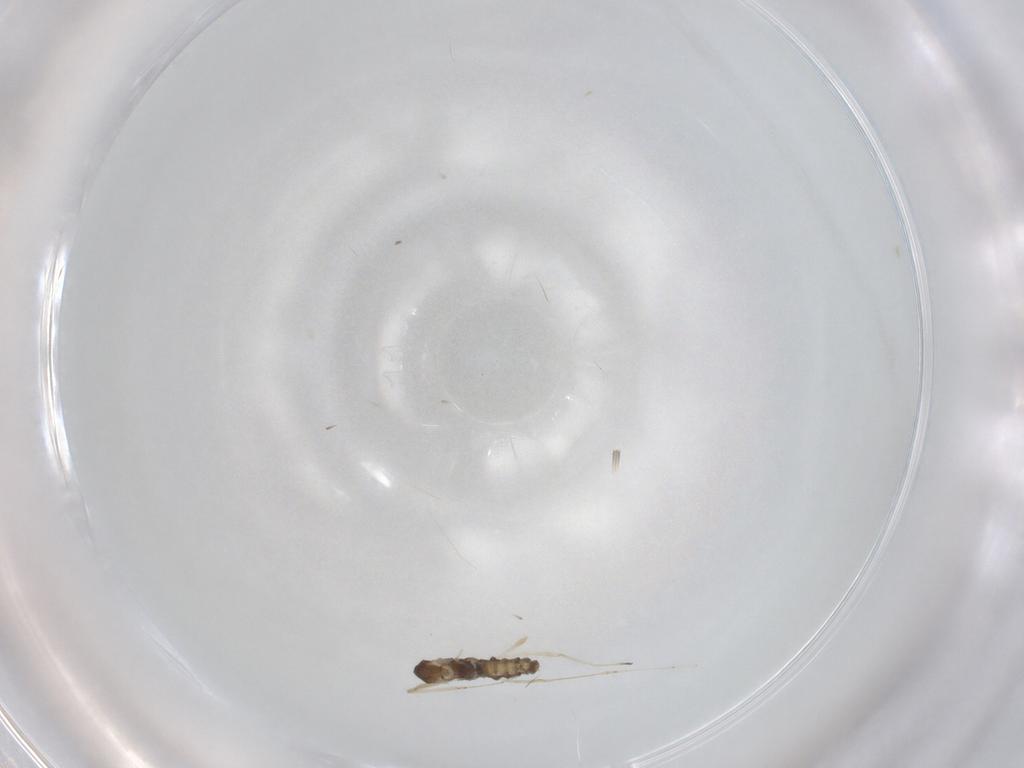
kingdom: Animalia
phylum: Arthropoda
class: Insecta
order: Diptera
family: Cecidomyiidae
